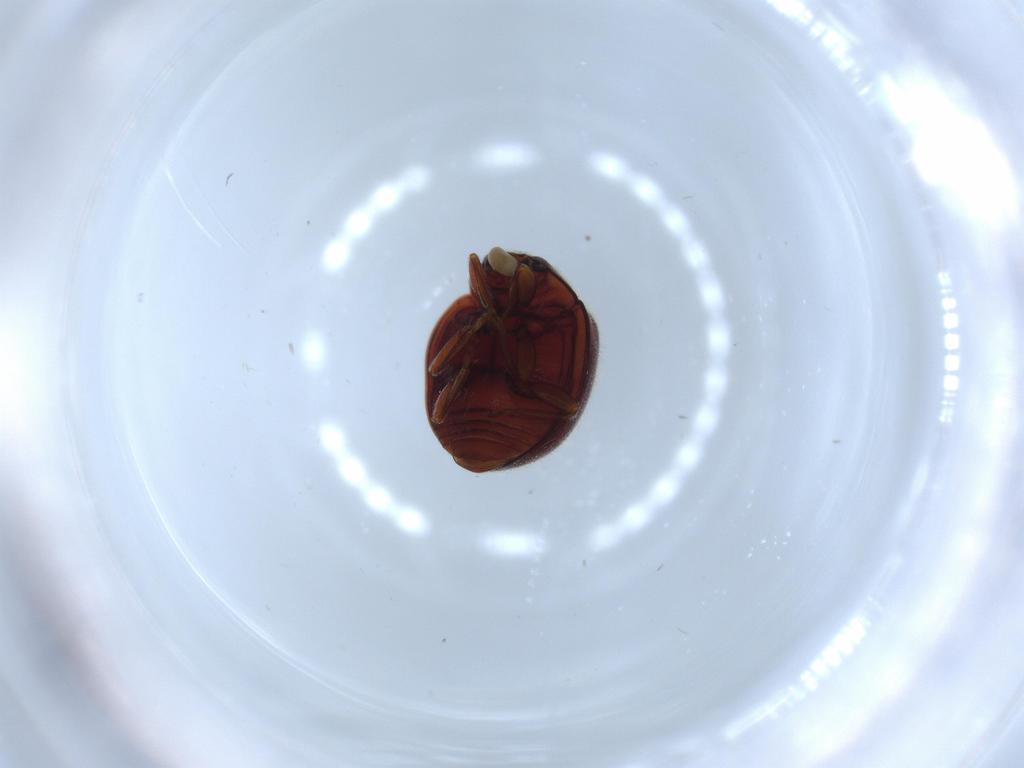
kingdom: Animalia
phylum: Arthropoda
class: Insecta
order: Coleoptera
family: Coccinellidae
